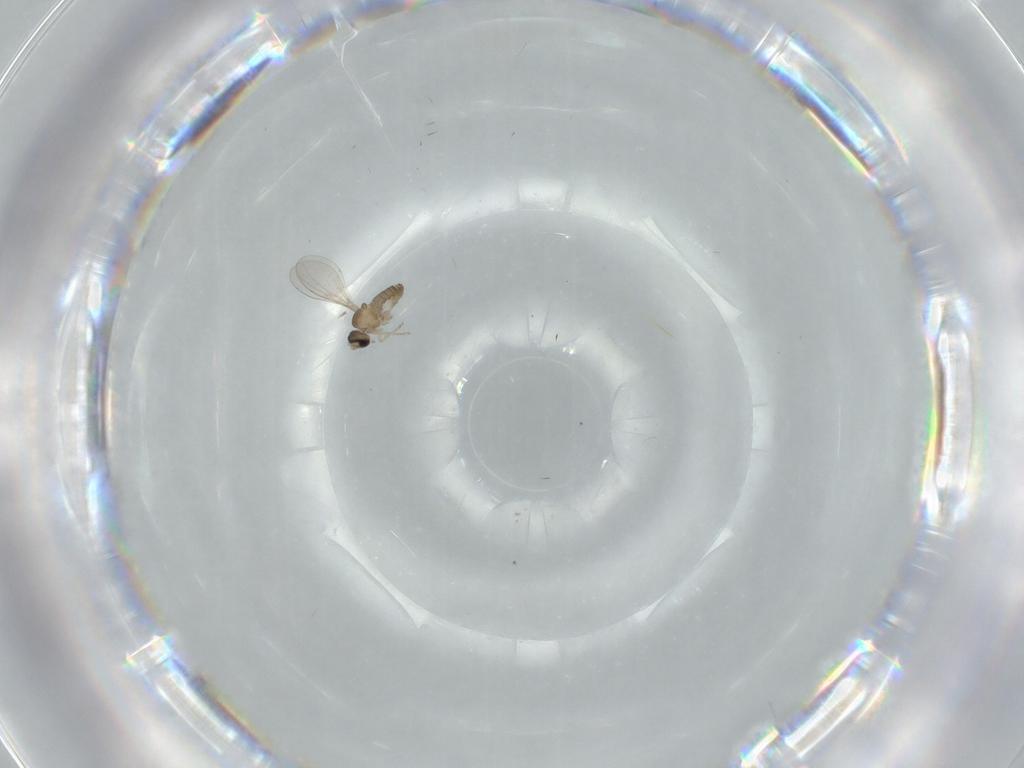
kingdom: Animalia
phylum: Arthropoda
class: Insecta
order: Diptera
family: Cecidomyiidae
